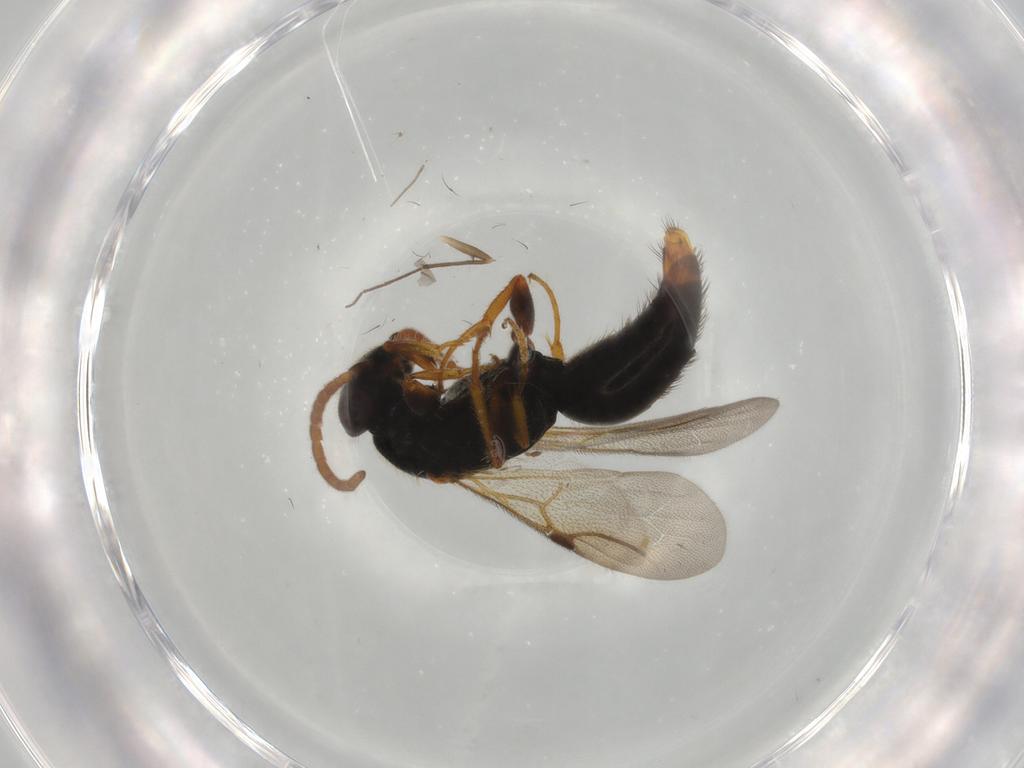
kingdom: Animalia
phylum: Arthropoda
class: Insecta
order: Hymenoptera
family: Bethylidae
